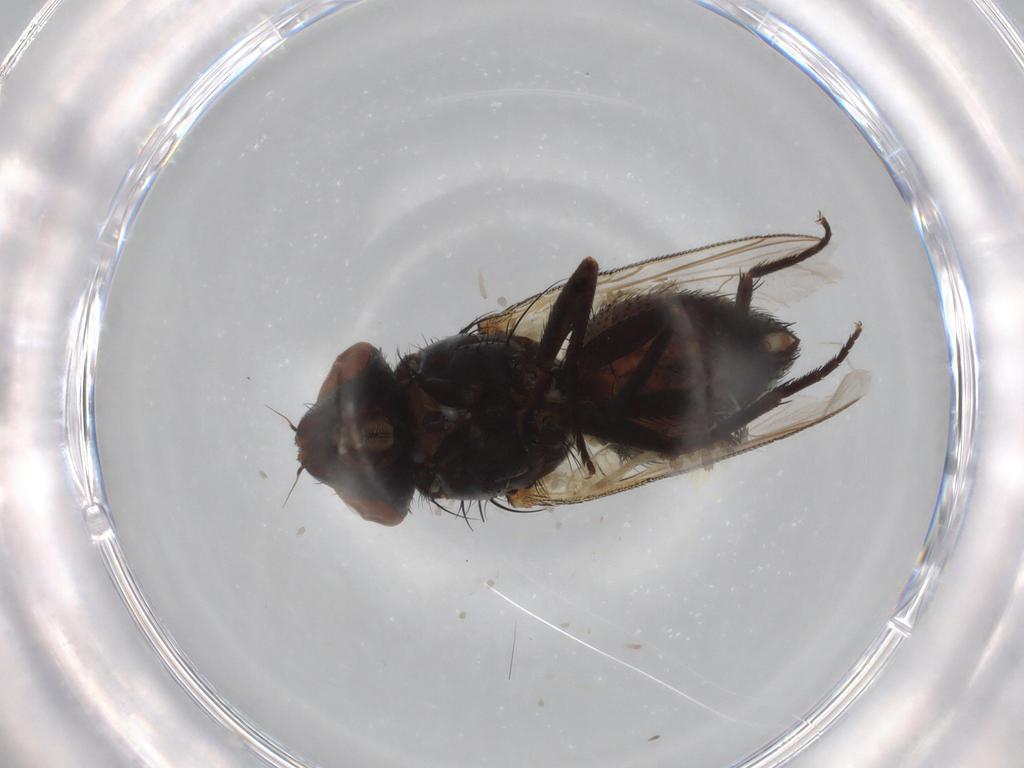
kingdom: Animalia
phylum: Arthropoda
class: Insecta
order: Diptera
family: Sarcophagidae
